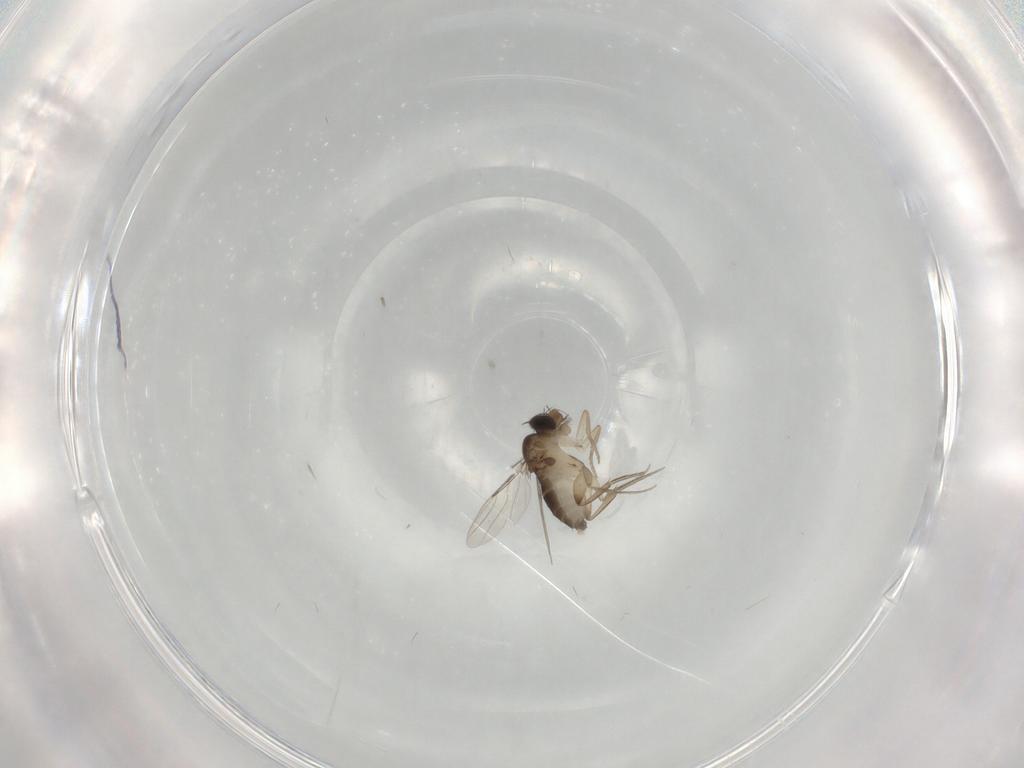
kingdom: Animalia
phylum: Arthropoda
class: Insecta
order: Diptera
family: Phoridae
